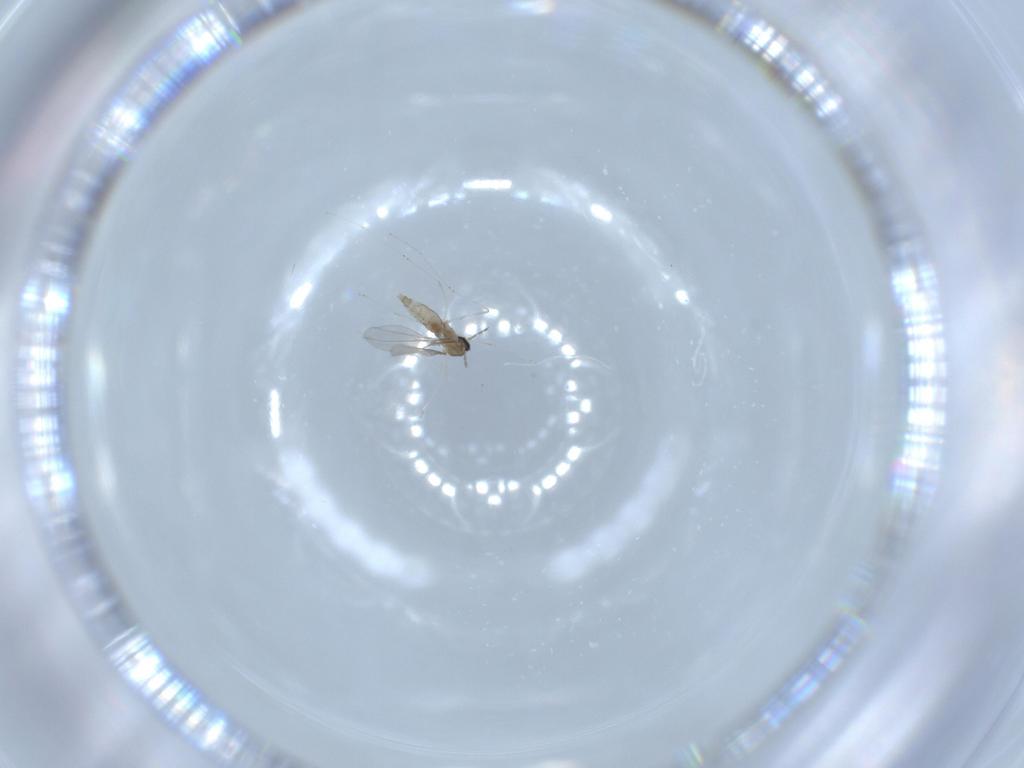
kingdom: Animalia
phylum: Arthropoda
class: Insecta
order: Diptera
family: Cecidomyiidae
